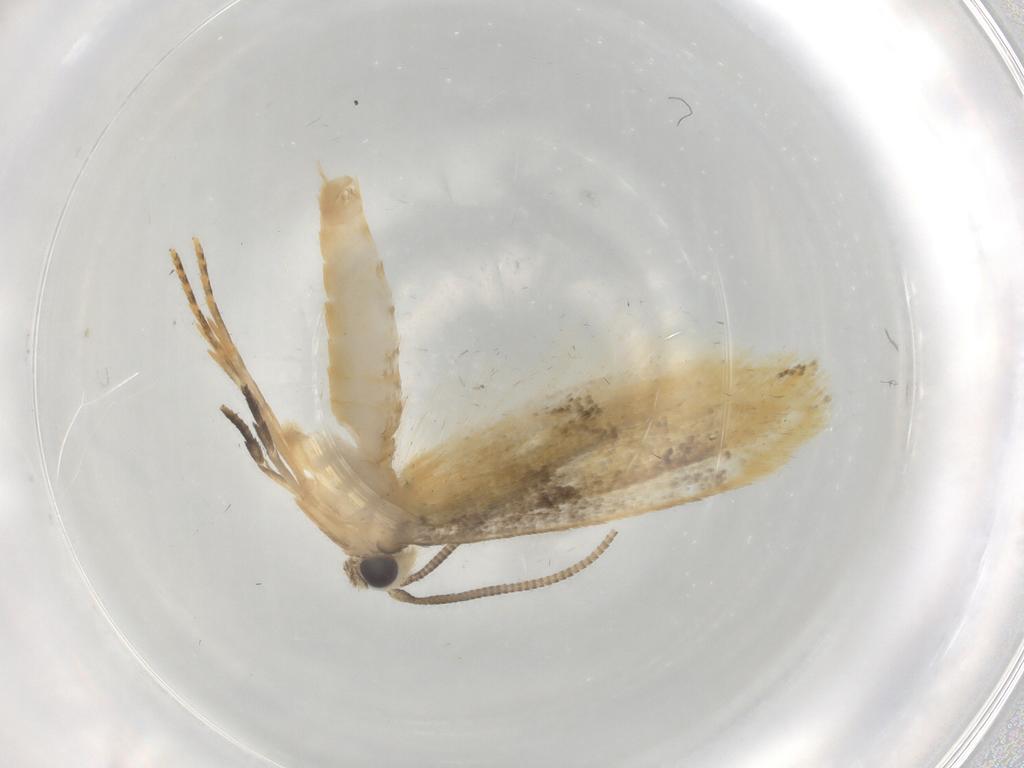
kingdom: Animalia
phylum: Arthropoda
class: Insecta
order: Lepidoptera
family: Tineidae
